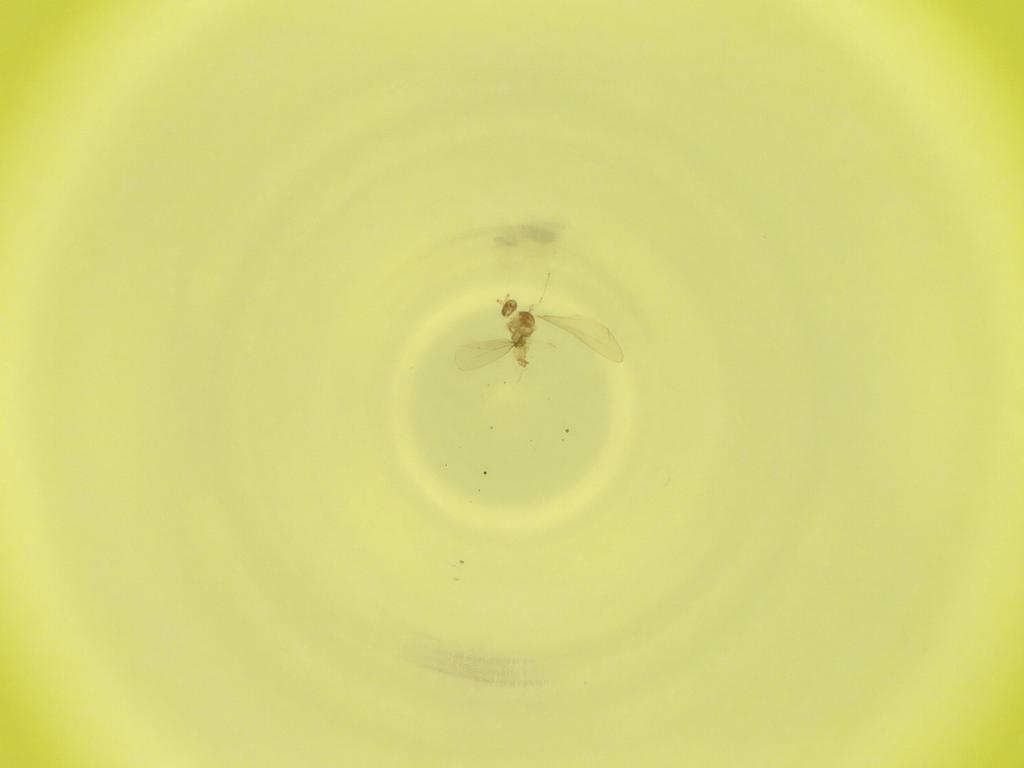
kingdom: Animalia
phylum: Arthropoda
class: Insecta
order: Diptera
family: Cecidomyiidae
